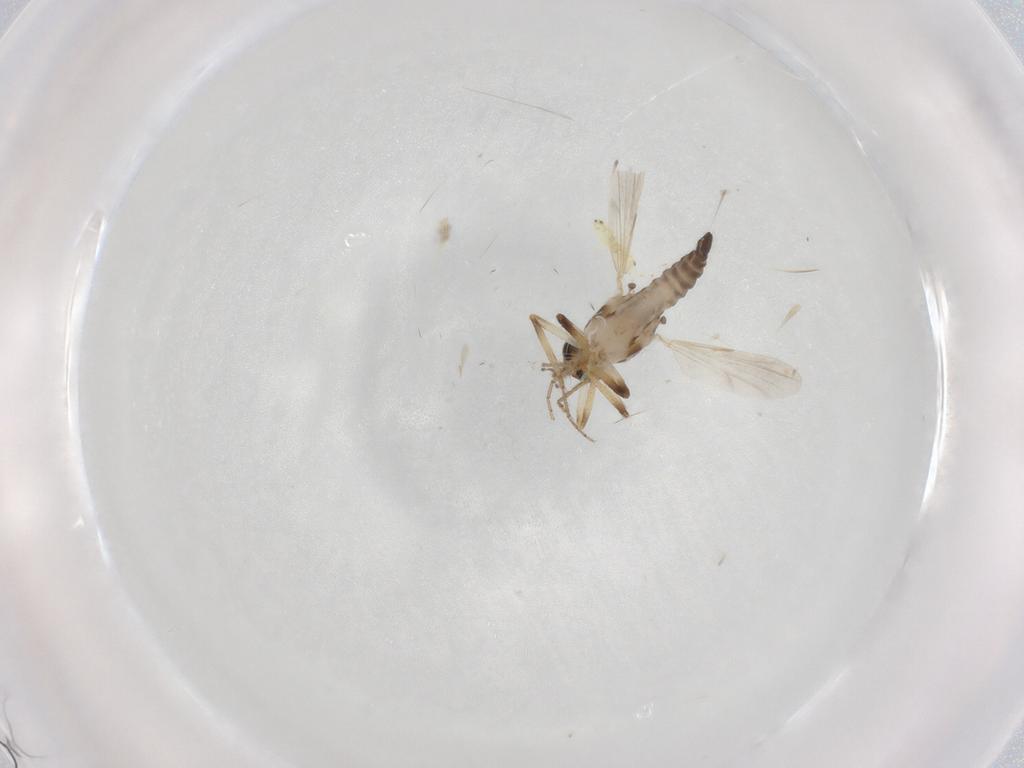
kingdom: Animalia
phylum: Arthropoda
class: Insecta
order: Diptera
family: Ceratopogonidae
